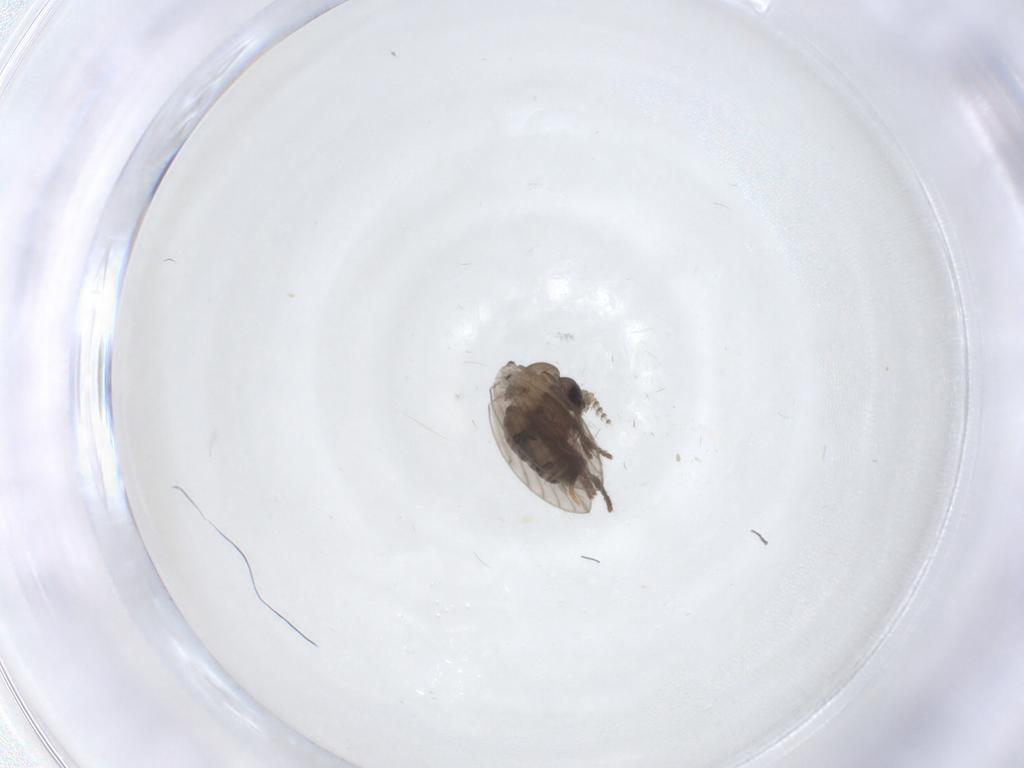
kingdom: Animalia
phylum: Arthropoda
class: Insecta
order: Diptera
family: Psychodidae
